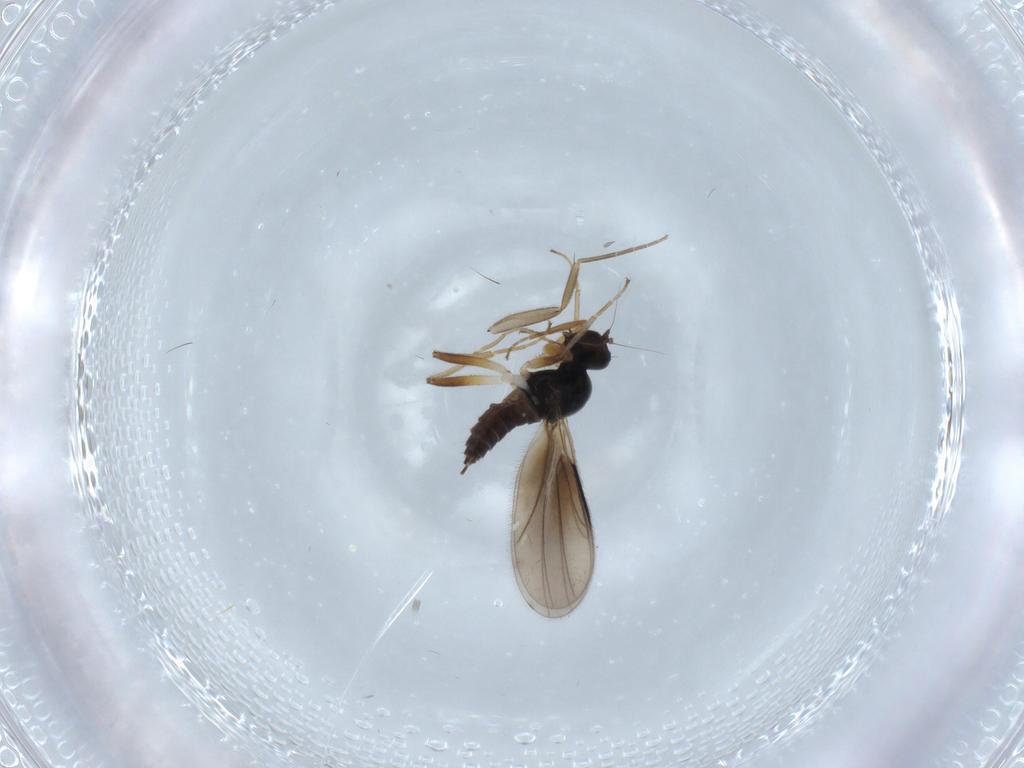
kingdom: Animalia
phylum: Arthropoda
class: Insecta
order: Diptera
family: Hybotidae
